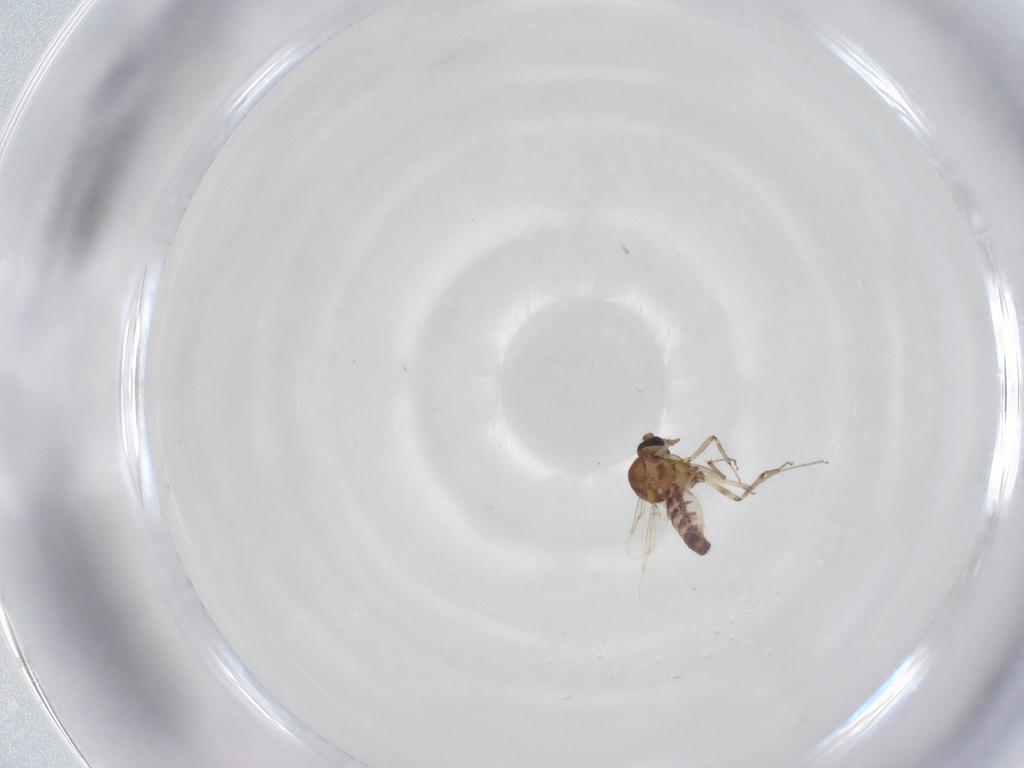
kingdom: Animalia
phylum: Arthropoda
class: Insecta
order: Diptera
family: Ceratopogonidae
